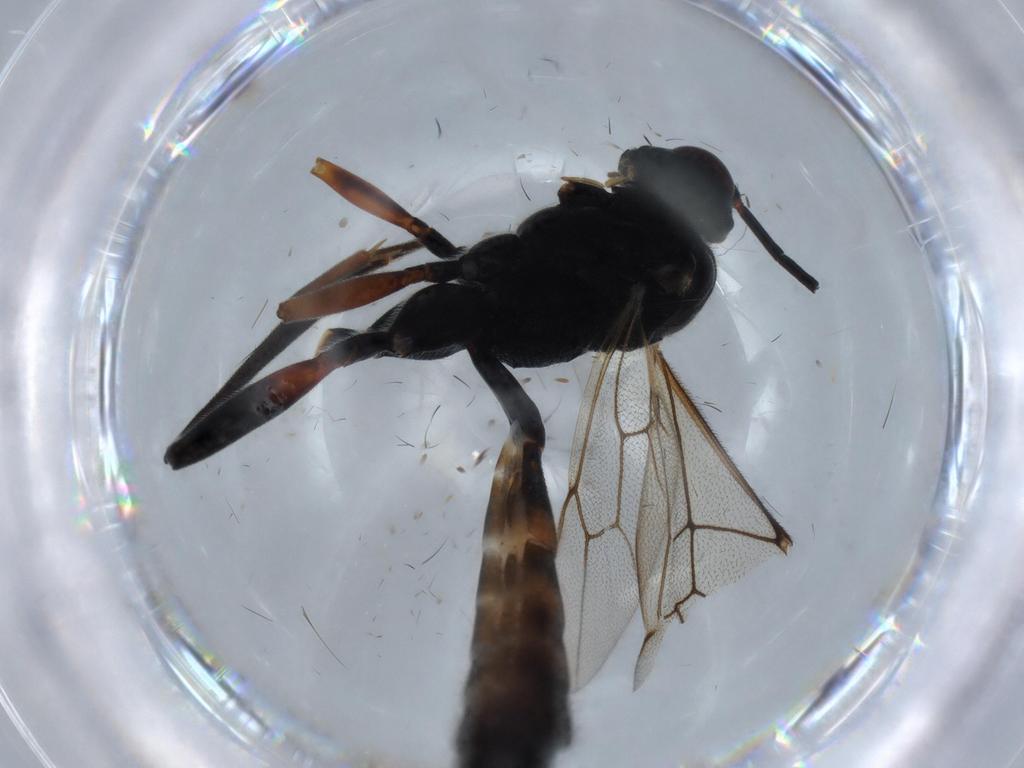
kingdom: Animalia
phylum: Arthropoda
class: Insecta
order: Hymenoptera
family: Ichneumonidae
